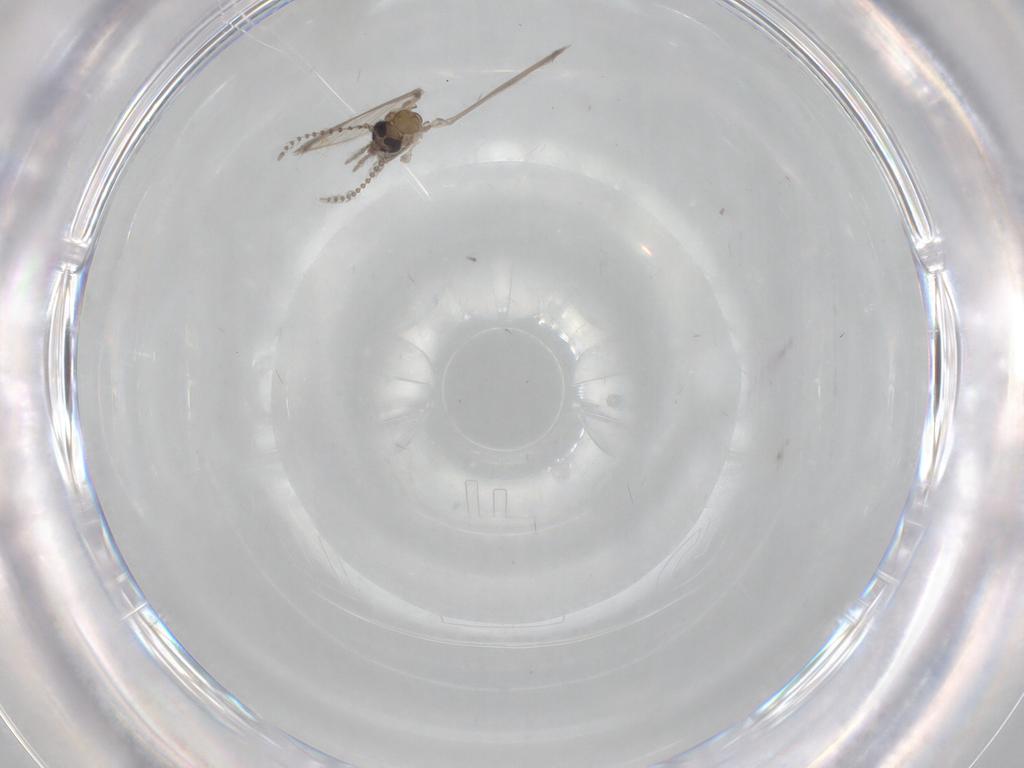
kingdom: Animalia
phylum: Arthropoda
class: Insecta
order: Diptera
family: Psychodidae
